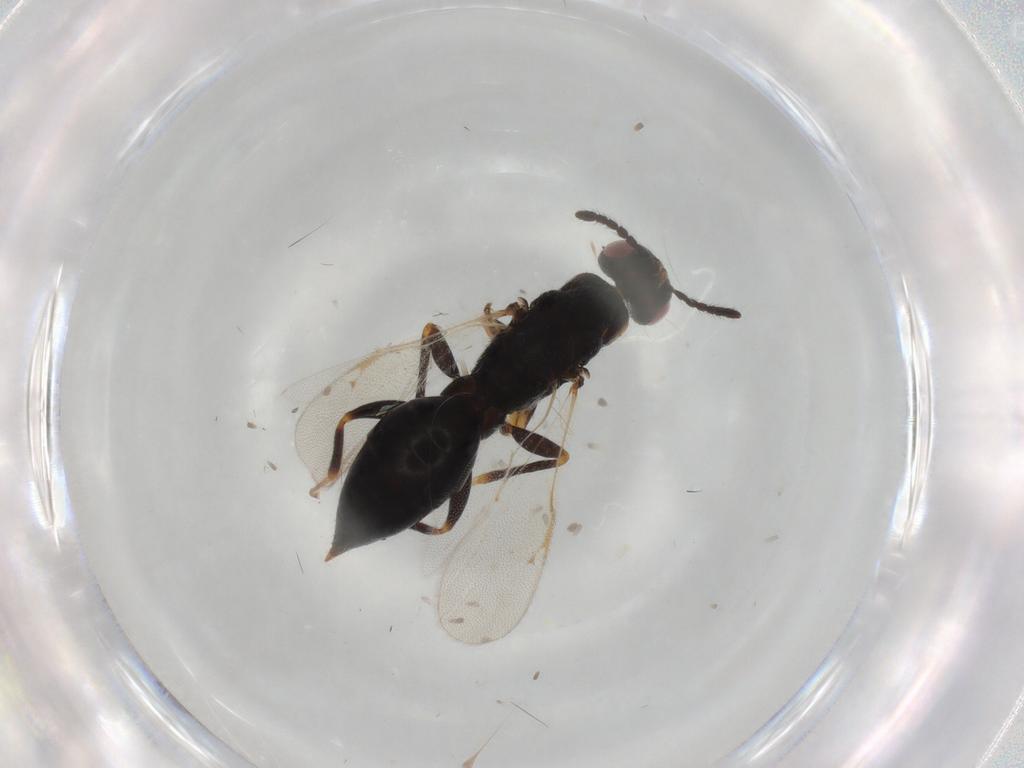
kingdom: Animalia
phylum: Arthropoda
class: Insecta
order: Hymenoptera
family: Eurytomidae
